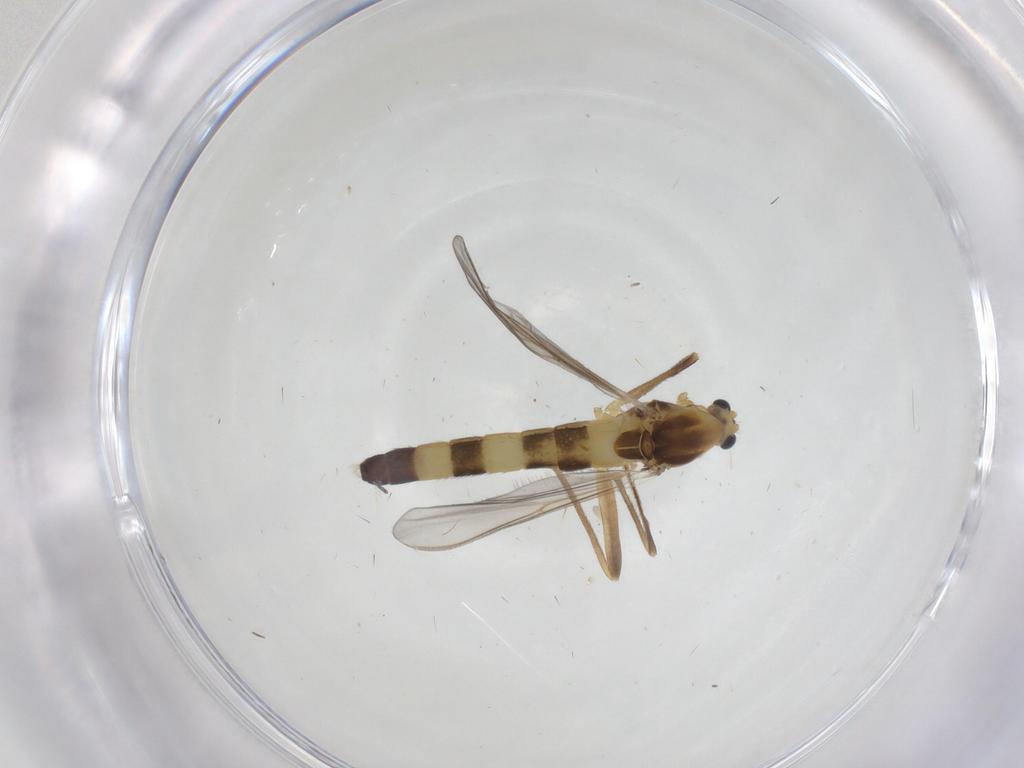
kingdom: Animalia
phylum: Arthropoda
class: Insecta
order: Diptera
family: Chironomidae
